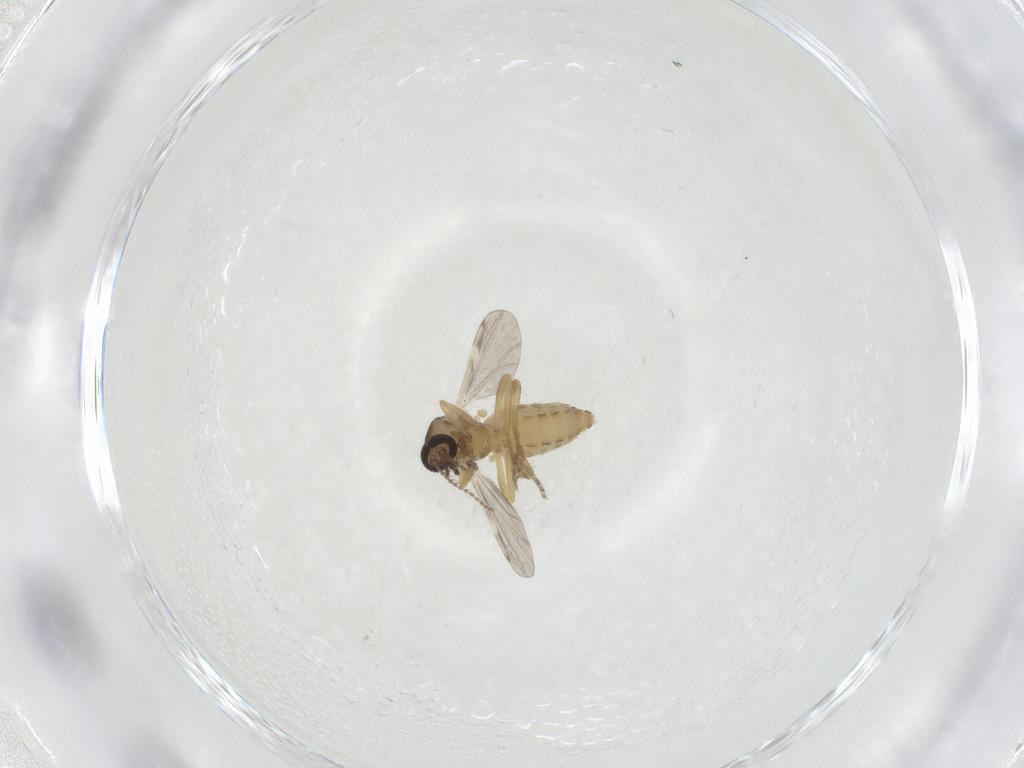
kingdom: Animalia
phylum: Arthropoda
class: Insecta
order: Diptera
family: Ceratopogonidae
